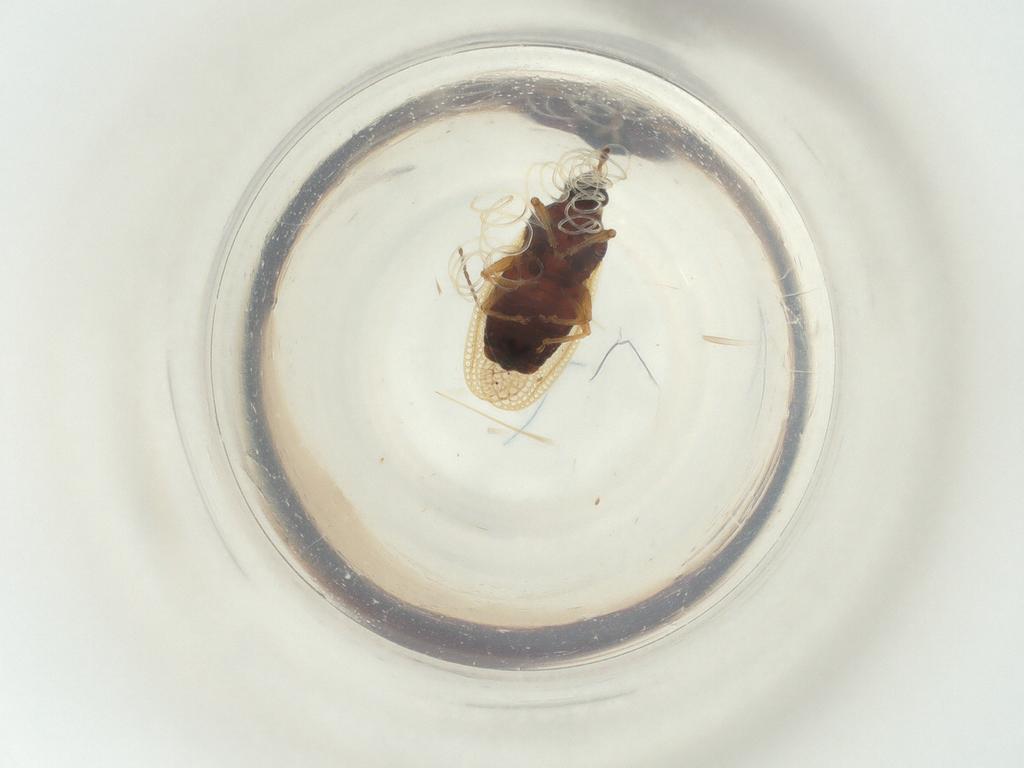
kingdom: Animalia
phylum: Arthropoda
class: Insecta
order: Hemiptera
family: Tingidae
